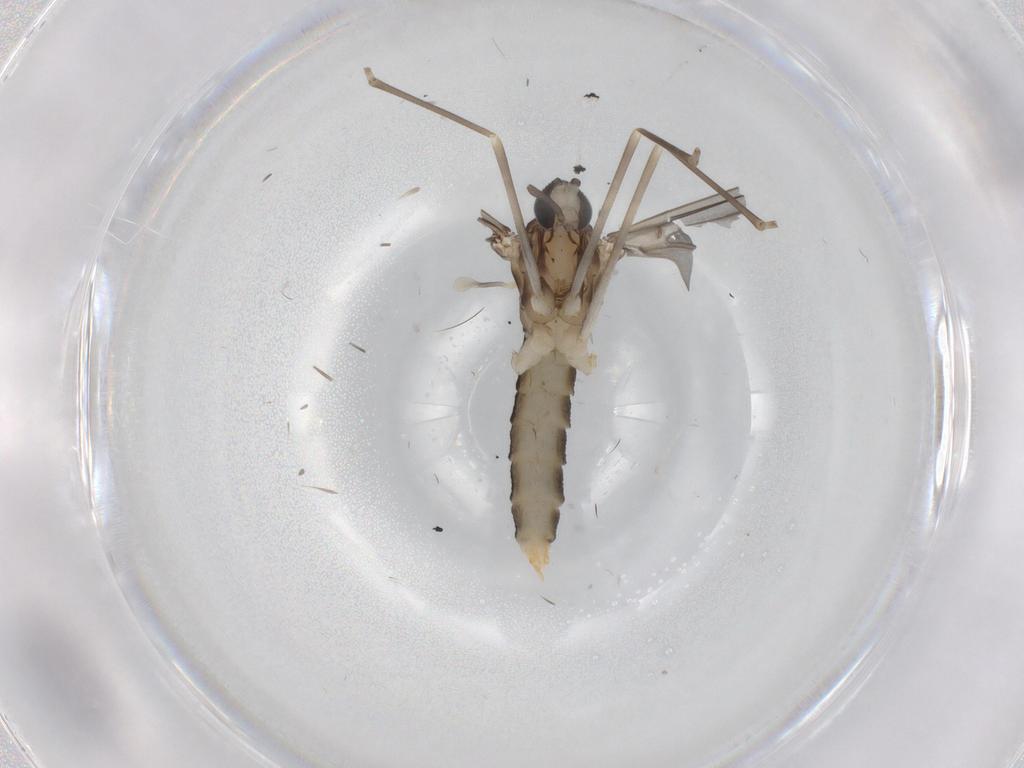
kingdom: Animalia
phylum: Arthropoda
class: Insecta
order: Diptera
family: Cecidomyiidae
